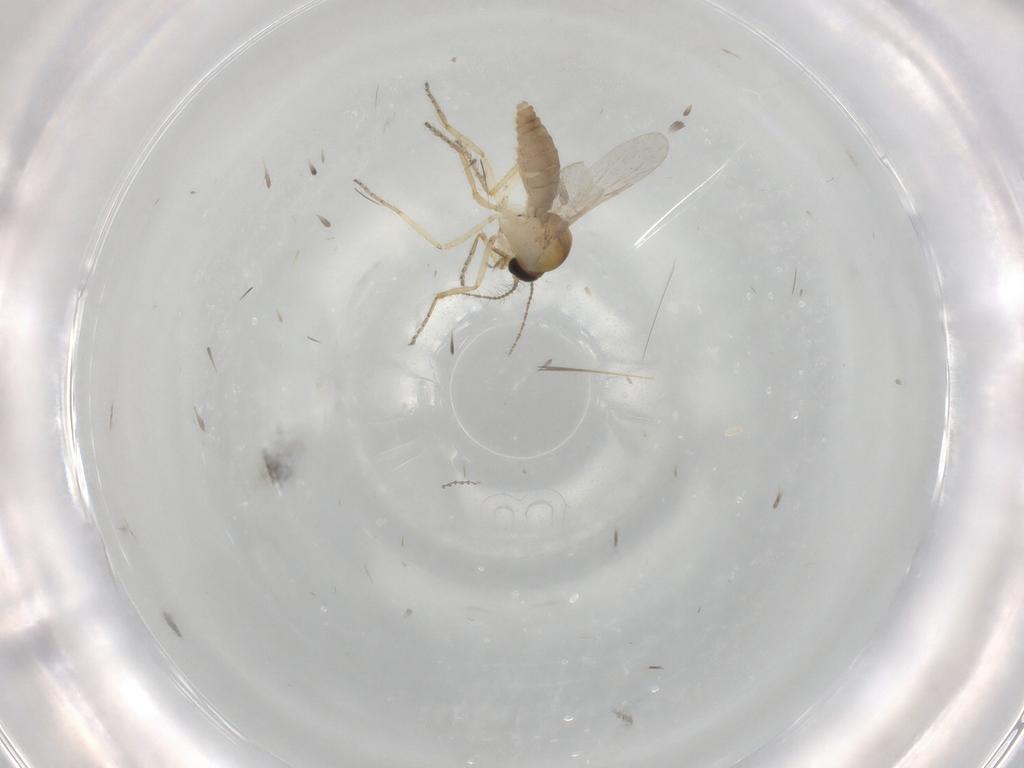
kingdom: Animalia
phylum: Arthropoda
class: Insecta
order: Diptera
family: Ceratopogonidae
